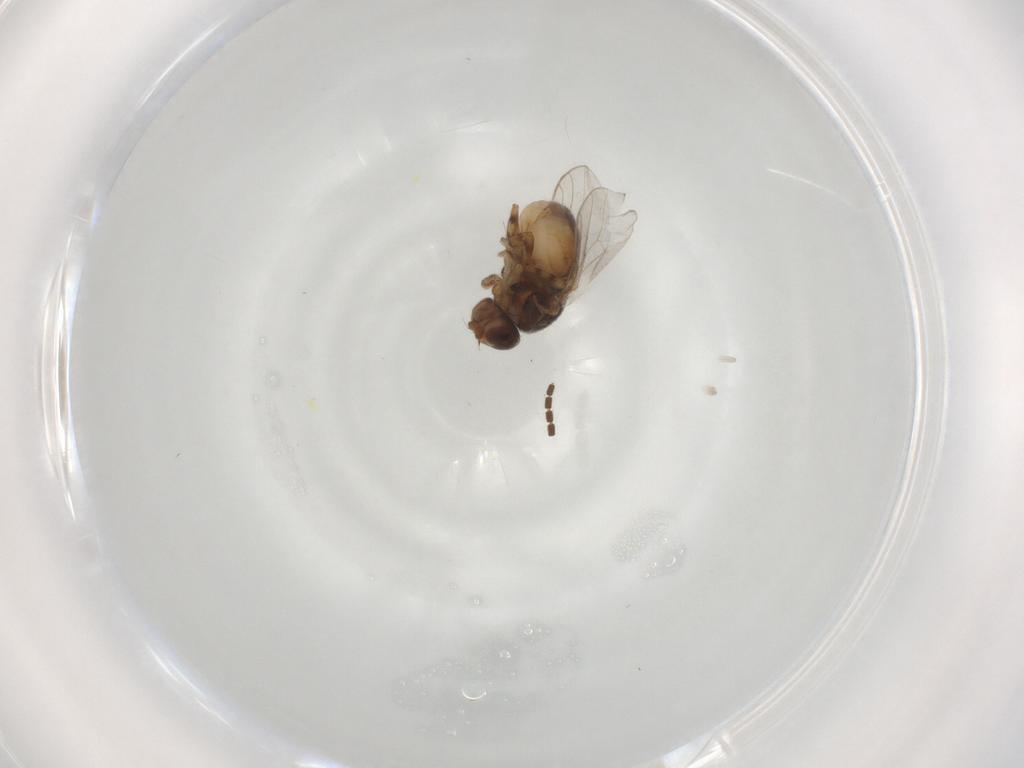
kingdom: Animalia
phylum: Arthropoda
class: Insecta
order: Diptera
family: Chloropidae
